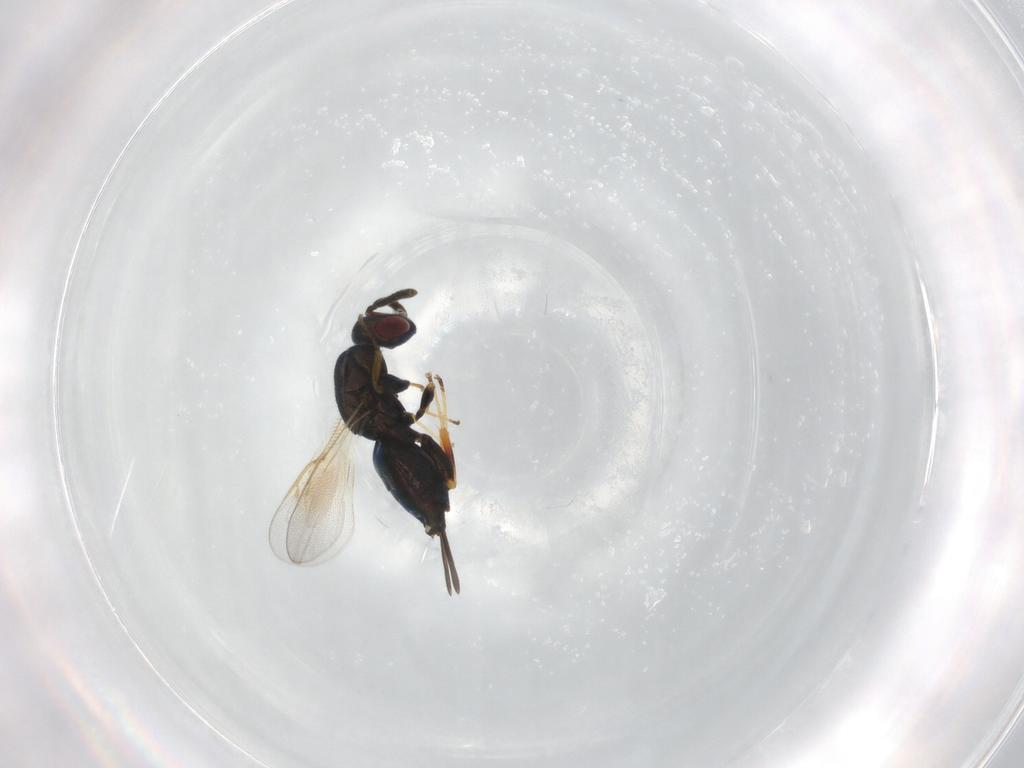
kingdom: Animalia
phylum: Arthropoda
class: Insecta
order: Hymenoptera
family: Torymidae
